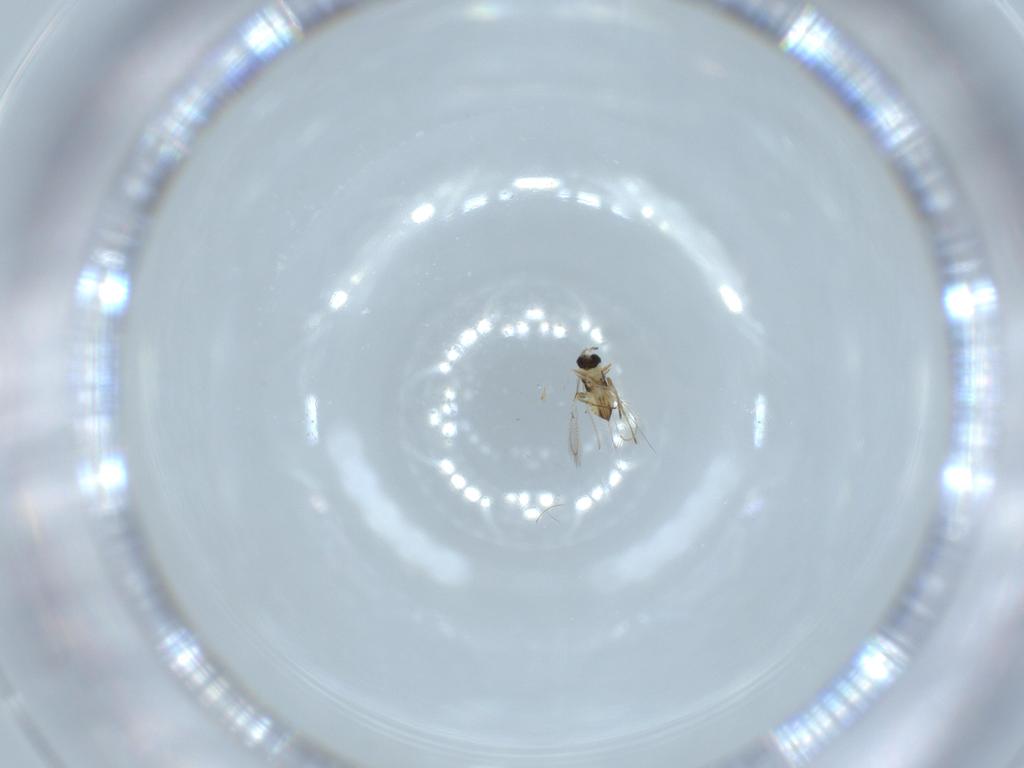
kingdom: Animalia
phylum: Arthropoda
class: Insecta
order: Hymenoptera
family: Trichogrammatidae
